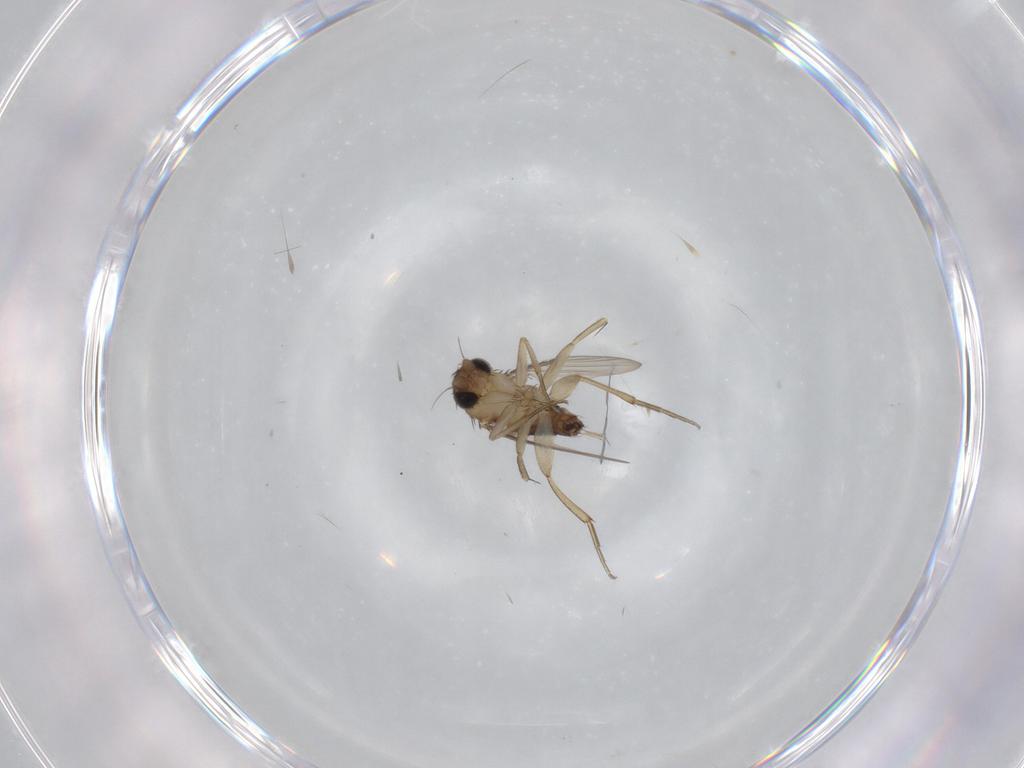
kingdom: Animalia
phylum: Arthropoda
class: Insecta
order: Diptera
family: Phoridae
